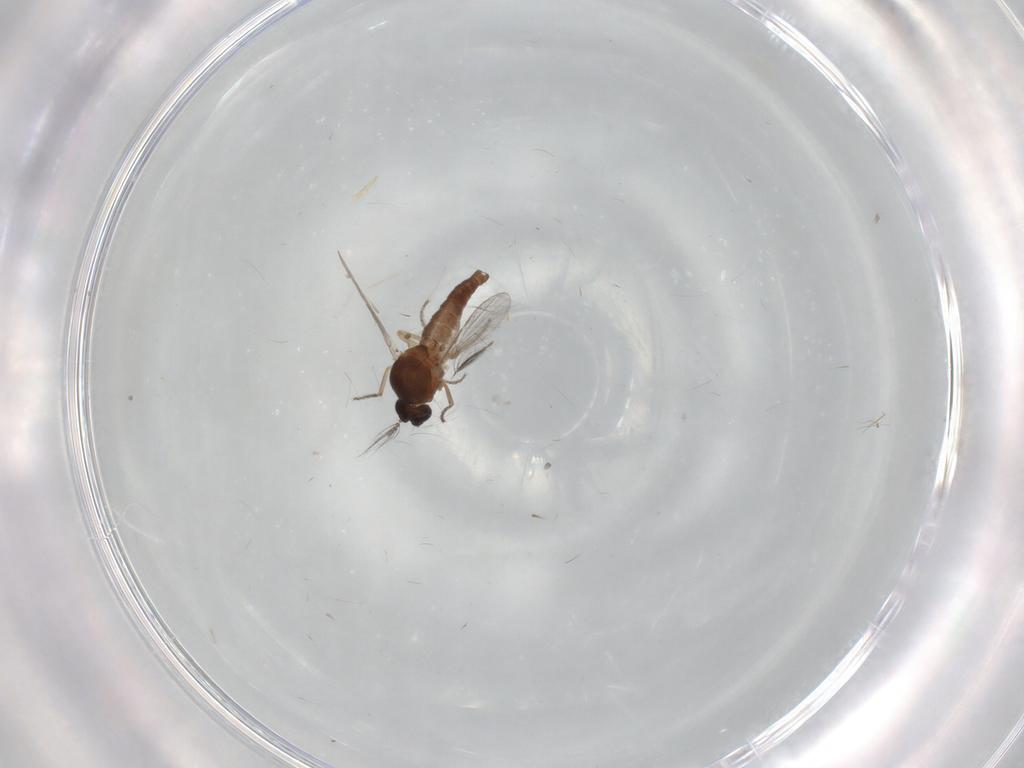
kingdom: Animalia
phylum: Arthropoda
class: Insecta
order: Diptera
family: Ceratopogonidae
